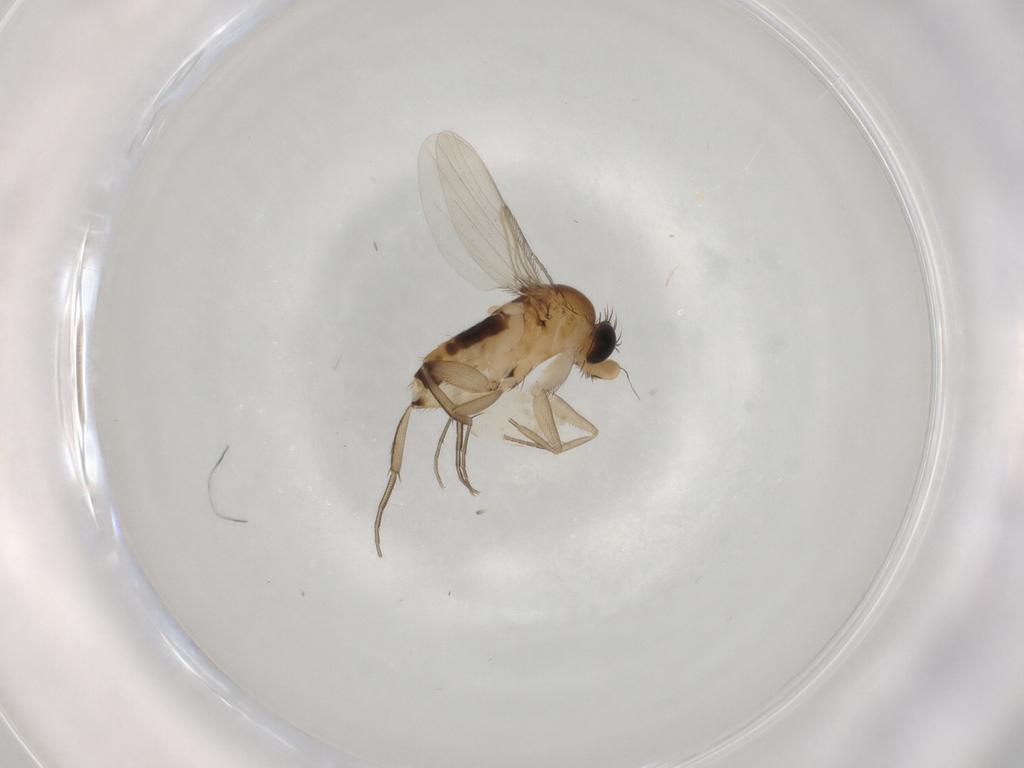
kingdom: Animalia
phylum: Arthropoda
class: Insecta
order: Diptera
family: Phoridae
